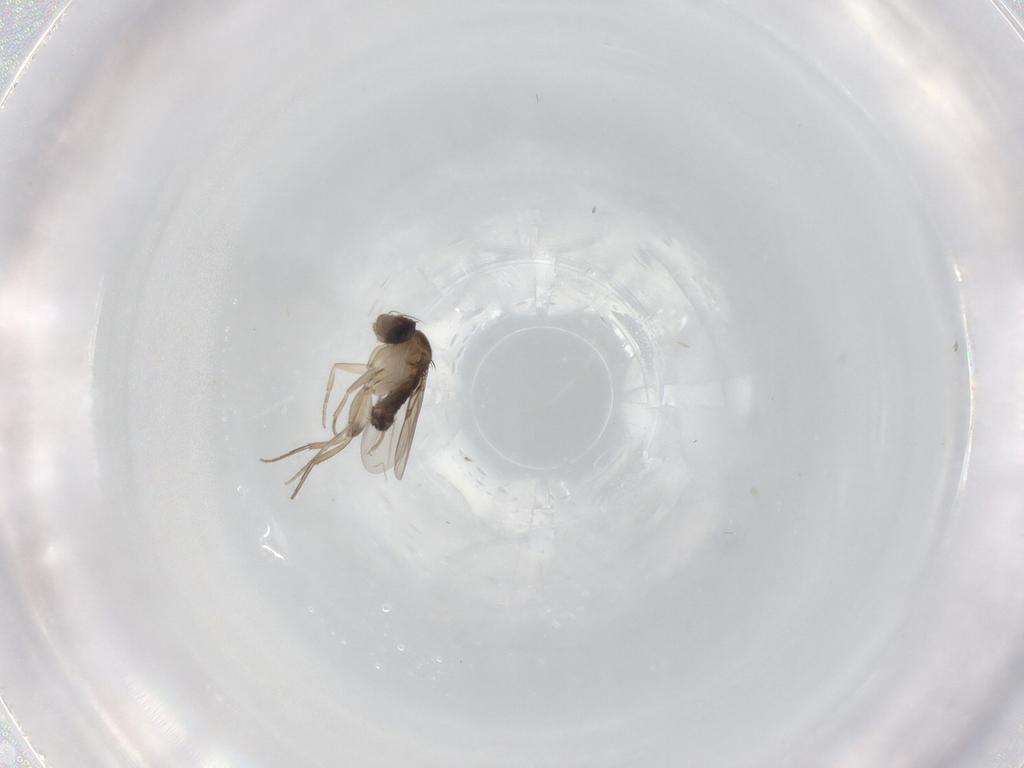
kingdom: Animalia
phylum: Arthropoda
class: Insecta
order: Diptera
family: Phoridae
